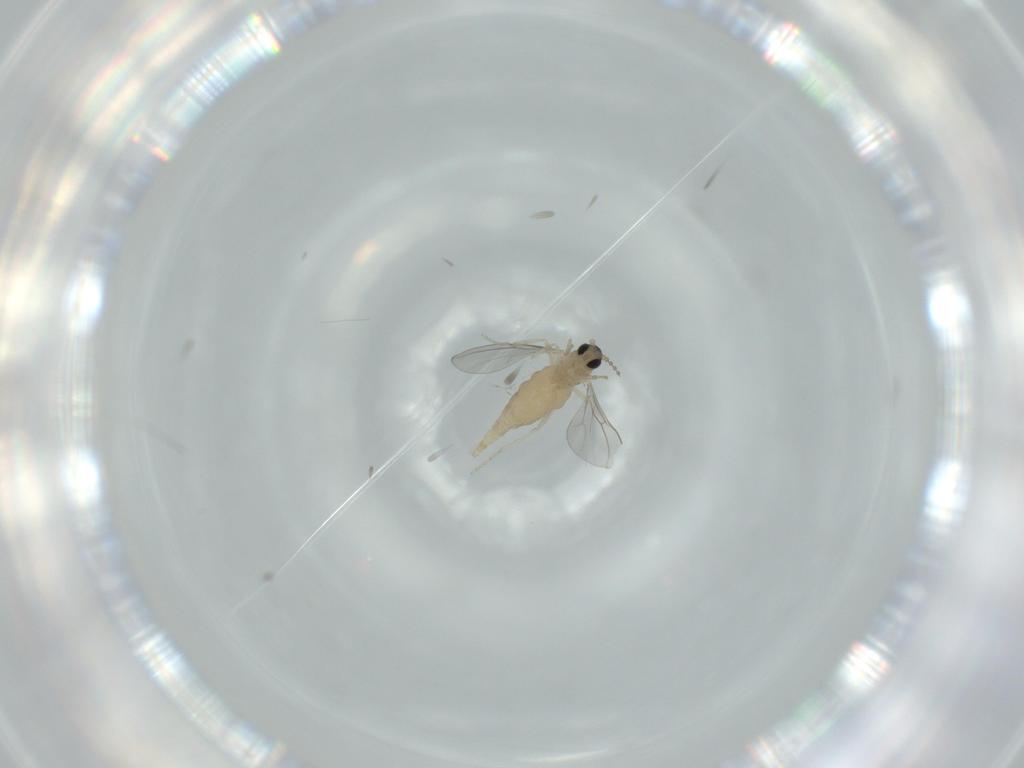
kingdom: Animalia
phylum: Arthropoda
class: Insecta
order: Diptera
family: Cecidomyiidae
